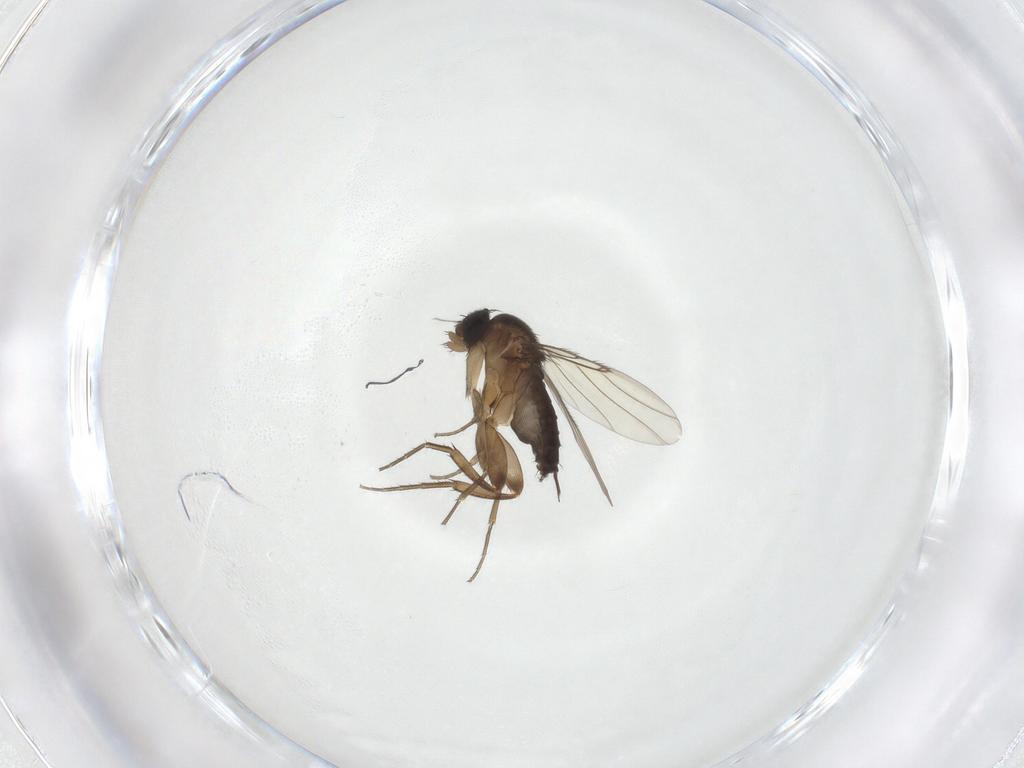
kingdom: Animalia
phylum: Arthropoda
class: Insecta
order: Diptera
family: Phoridae
